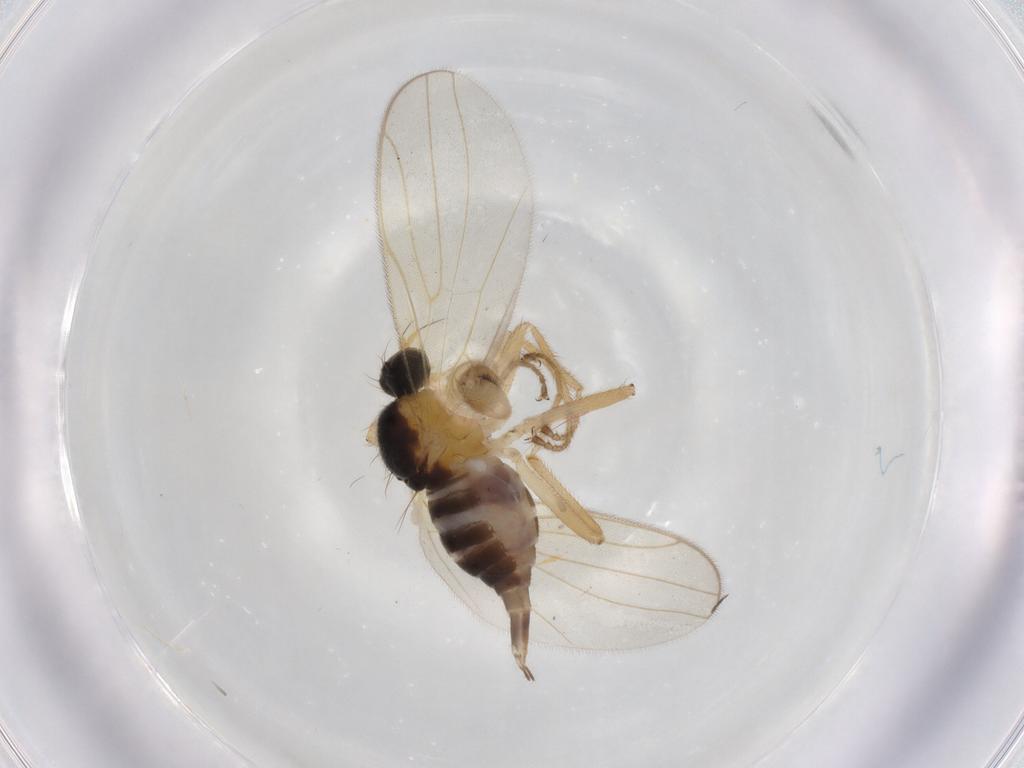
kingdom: Animalia
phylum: Arthropoda
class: Insecta
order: Diptera
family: Hybotidae
